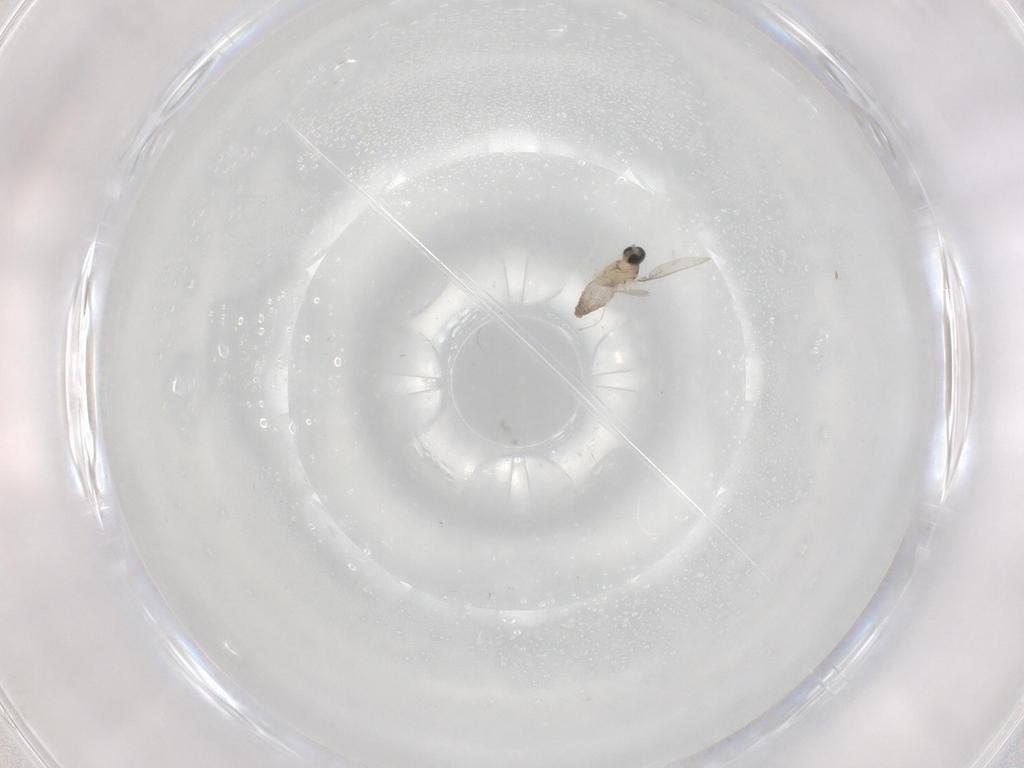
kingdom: Animalia
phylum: Arthropoda
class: Insecta
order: Diptera
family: Cecidomyiidae
